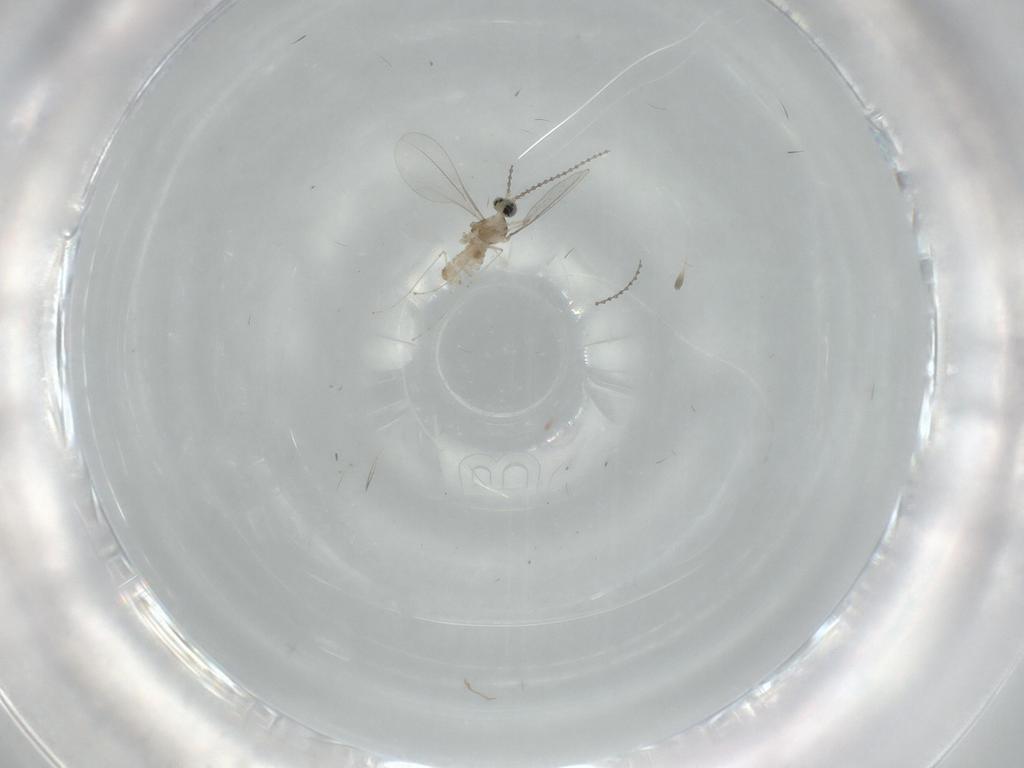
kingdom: Animalia
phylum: Arthropoda
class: Insecta
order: Diptera
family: Cecidomyiidae
